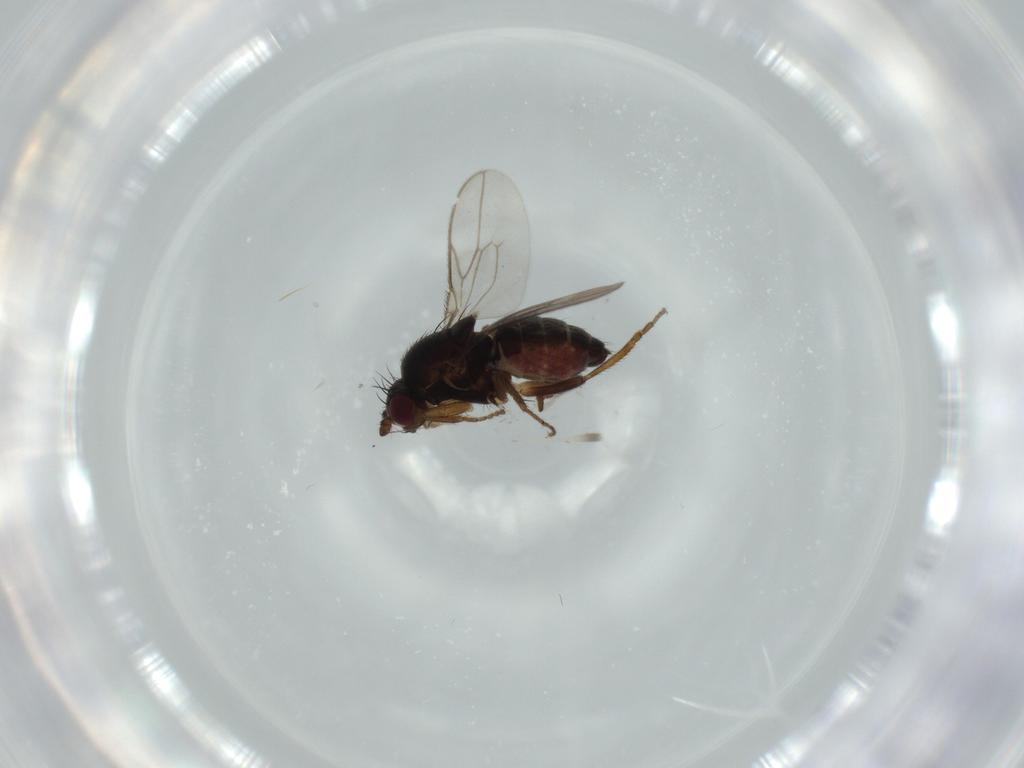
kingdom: Animalia
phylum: Arthropoda
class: Insecta
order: Diptera
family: Sphaeroceridae
